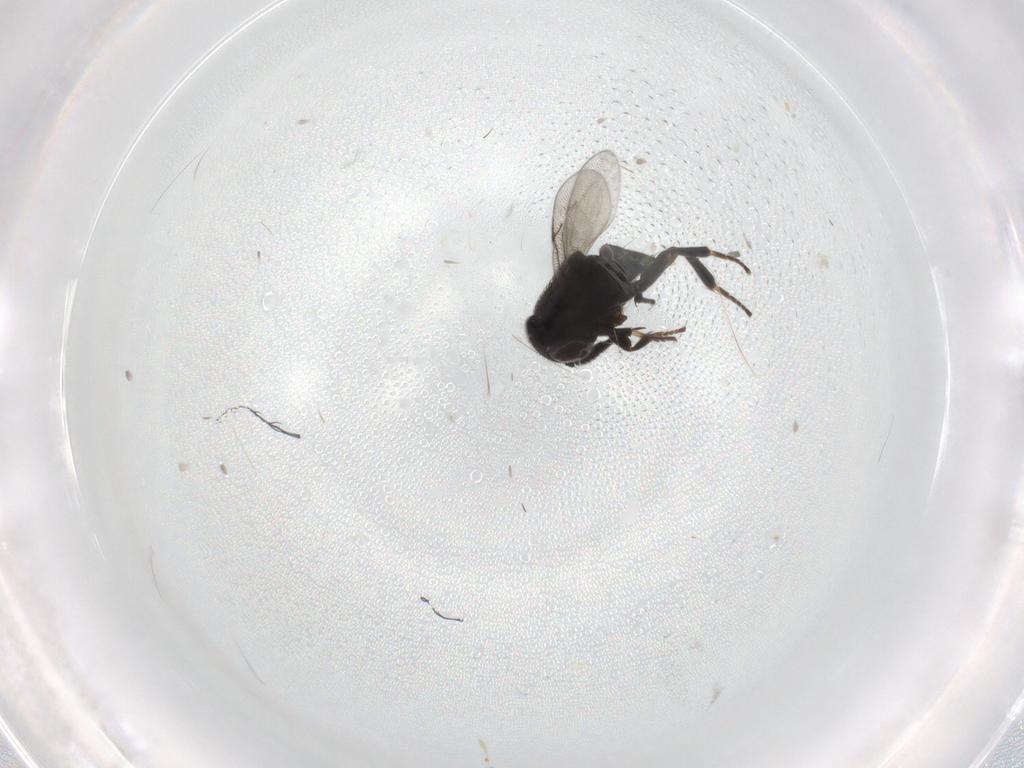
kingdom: Animalia
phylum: Arthropoda
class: Insecta
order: Hymenoptera
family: Encyrtidae
